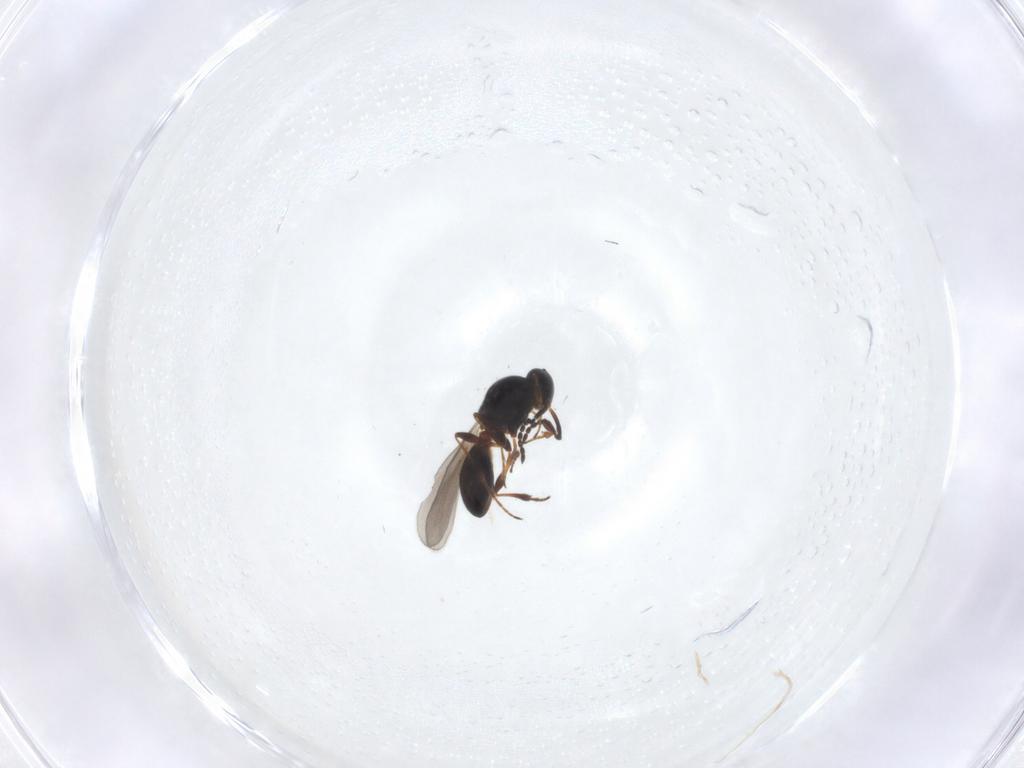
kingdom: Animalia
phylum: Arthropoda
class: Insecta
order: Hymenoptera
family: Platygastridae
